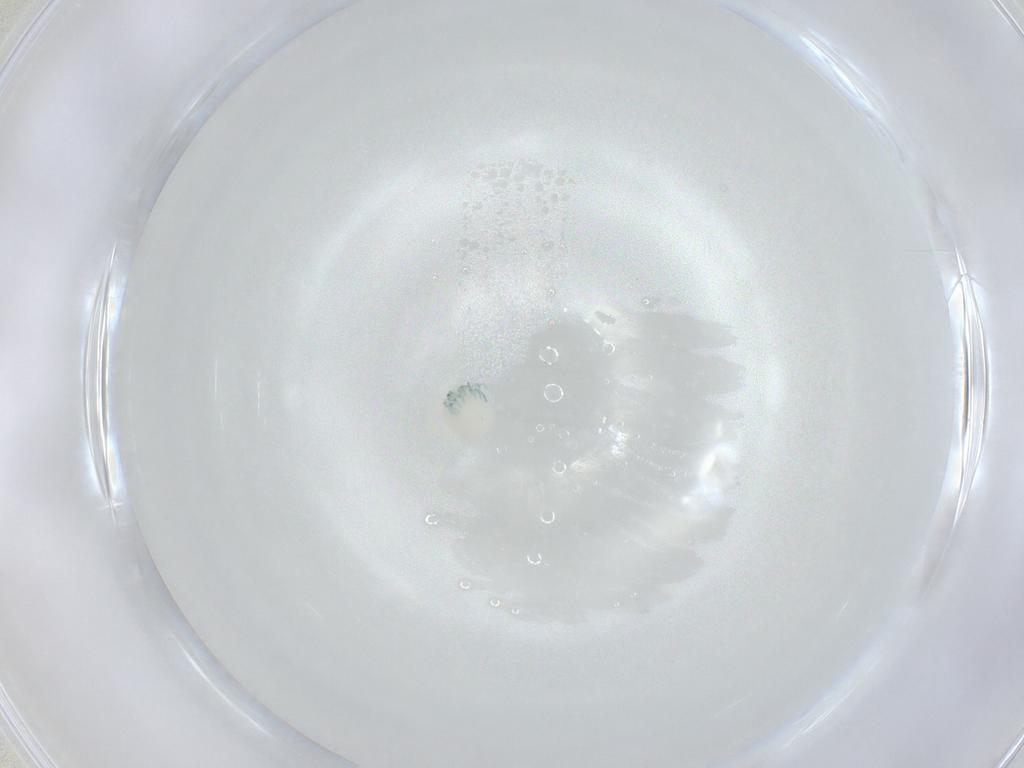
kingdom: Animalia
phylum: Arthropoda
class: Arachnida
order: Trombidiformes
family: Arrenuridae
